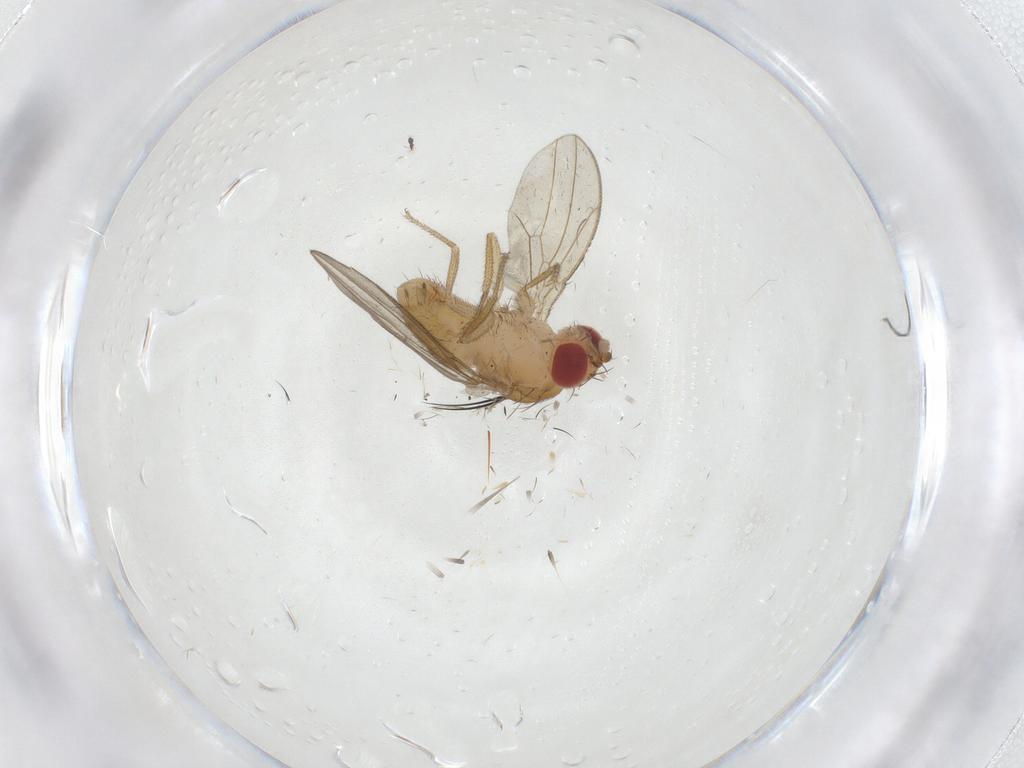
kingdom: Animalia
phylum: Arthropoda
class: Insecta
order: Diptera
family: Drosophilidae
